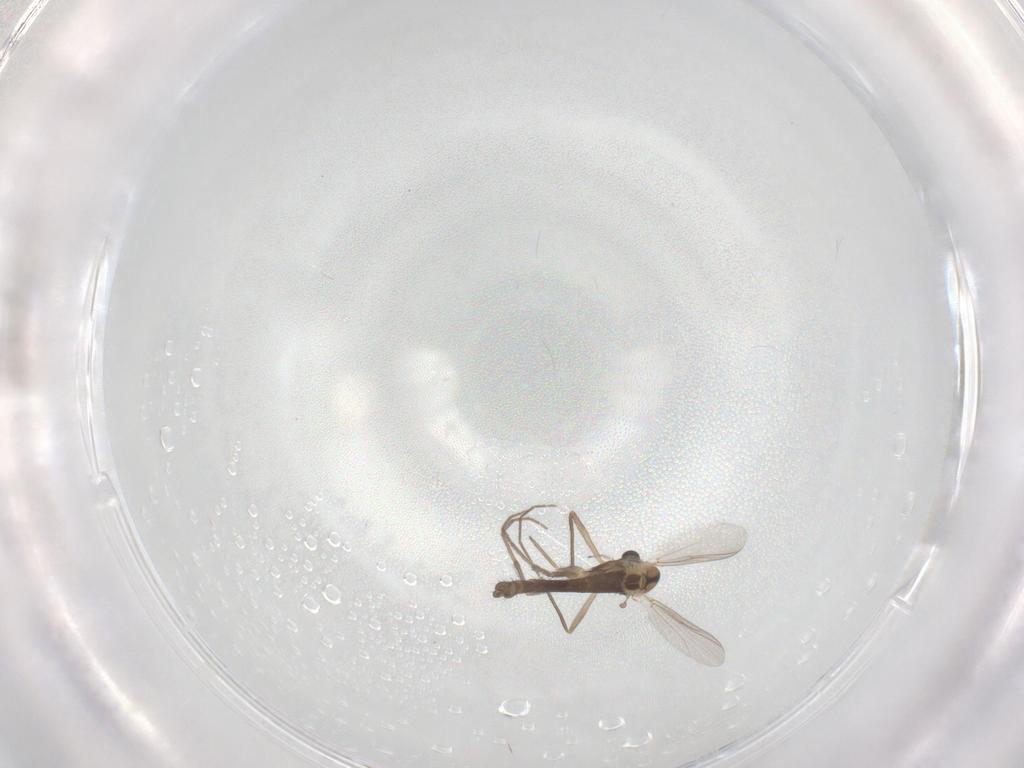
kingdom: Animalia
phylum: Arthropoda
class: Insecta
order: Diptera
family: Chironomidae
